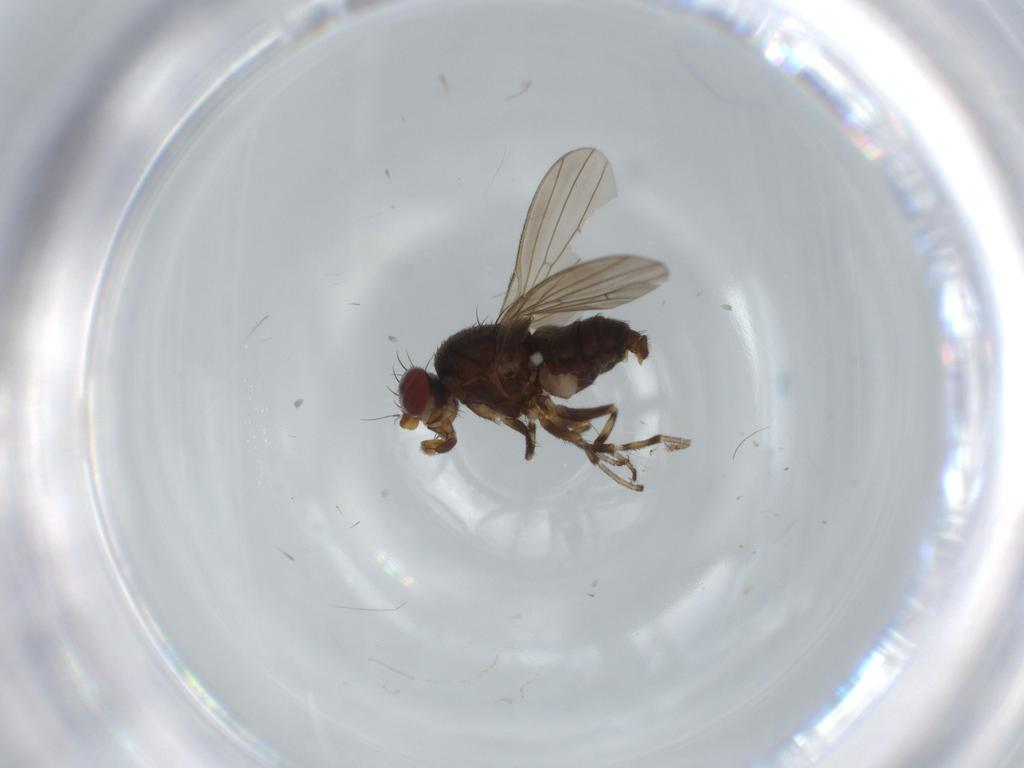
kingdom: Animalia
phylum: Arthropoda
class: Insecta
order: Diptera
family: Heleomyzidae
